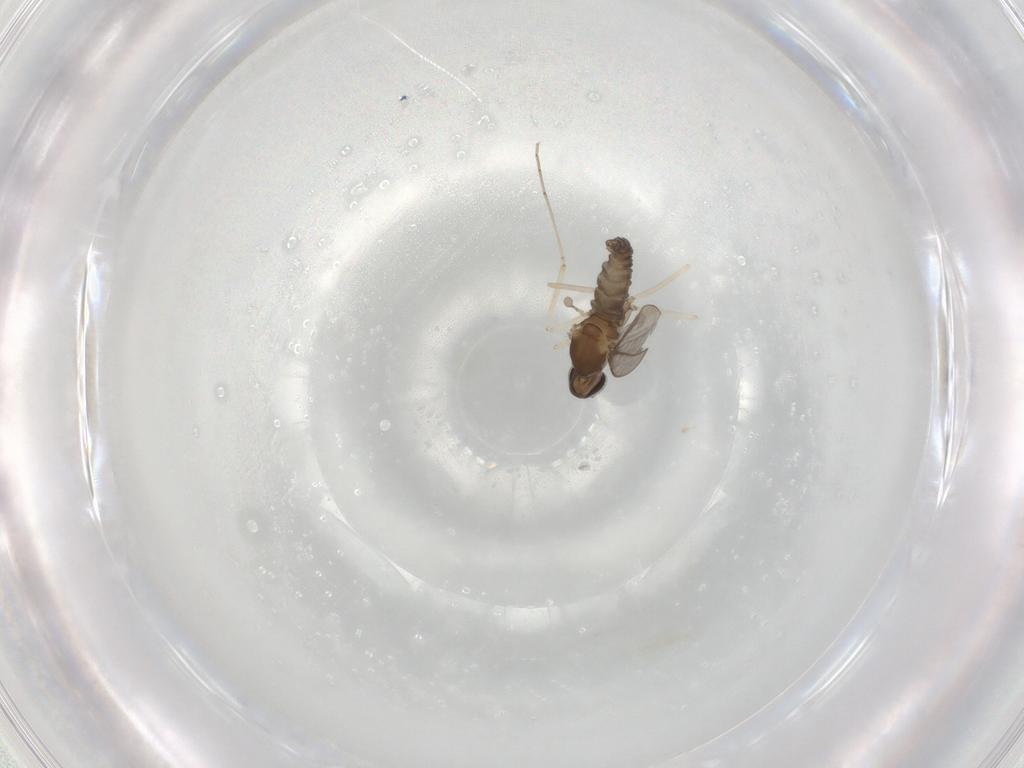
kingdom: Animalia
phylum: Arthropoda
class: Insecta
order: Diptera
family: Cecidomyiidae
